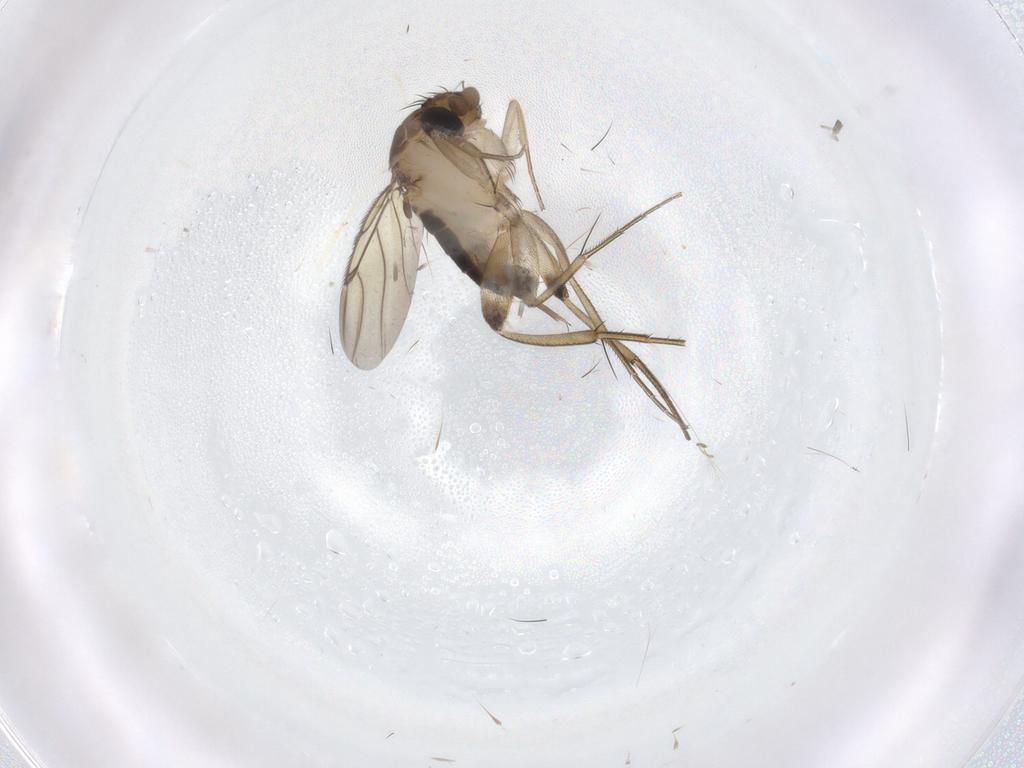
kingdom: Animalia
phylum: Arthropoda
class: Insecta
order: Diptera
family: Phoridae
